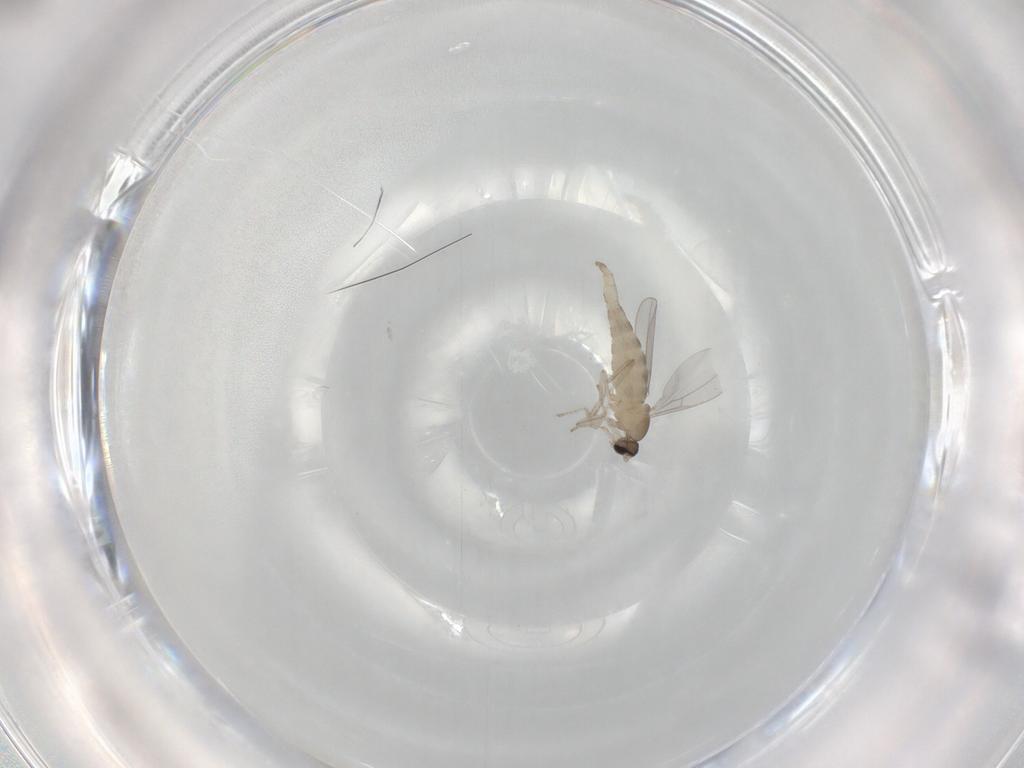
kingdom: Animalia
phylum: Arthropoda
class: Insecta
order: Diptera
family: Cecidomyiidae
